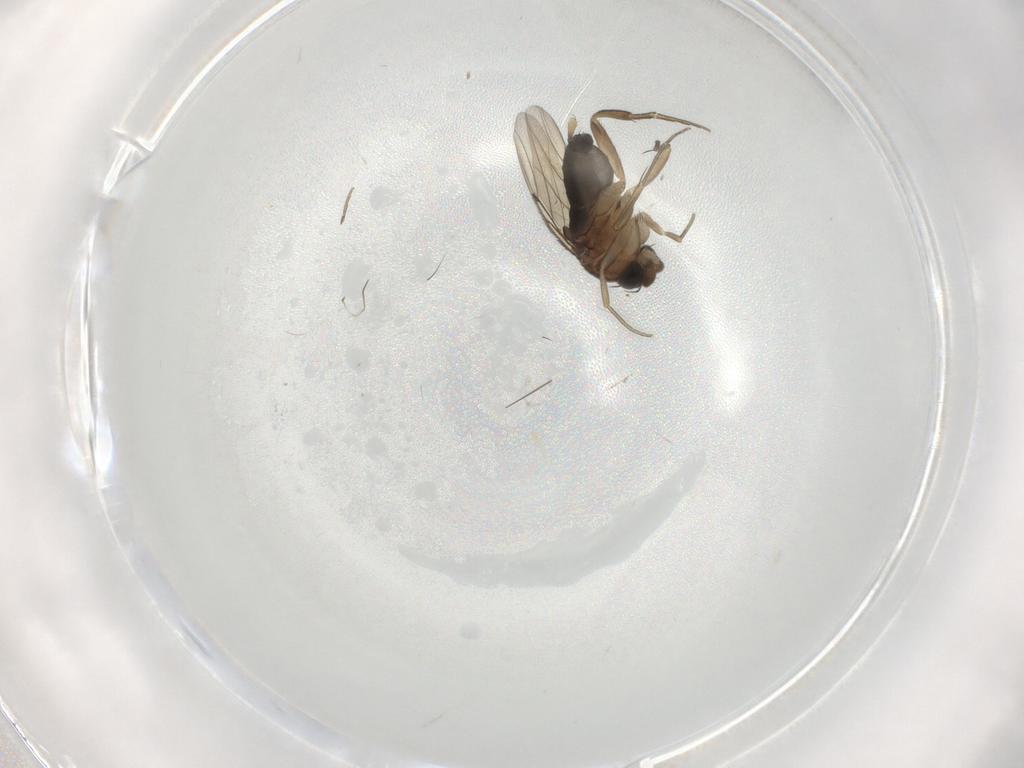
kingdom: Animalia
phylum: Arthropoda
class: Insecta
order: Diptera
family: Phoridae
